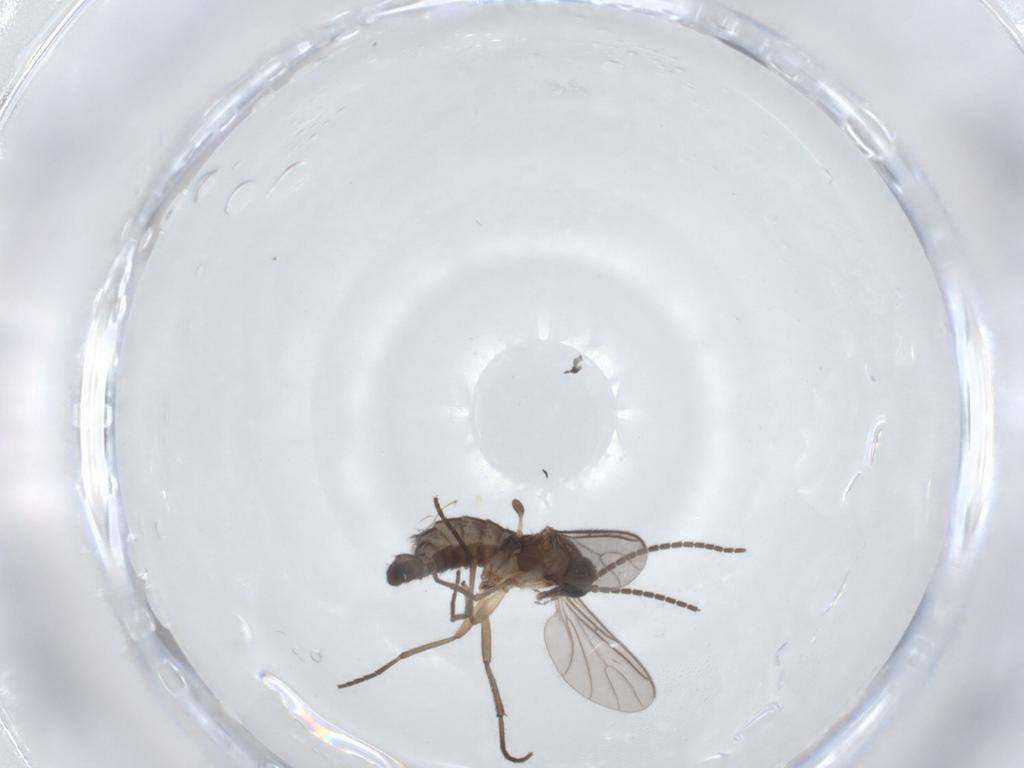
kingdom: Animalia
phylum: Arthropoda
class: Insecta
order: Diptera
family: Sciaridae
